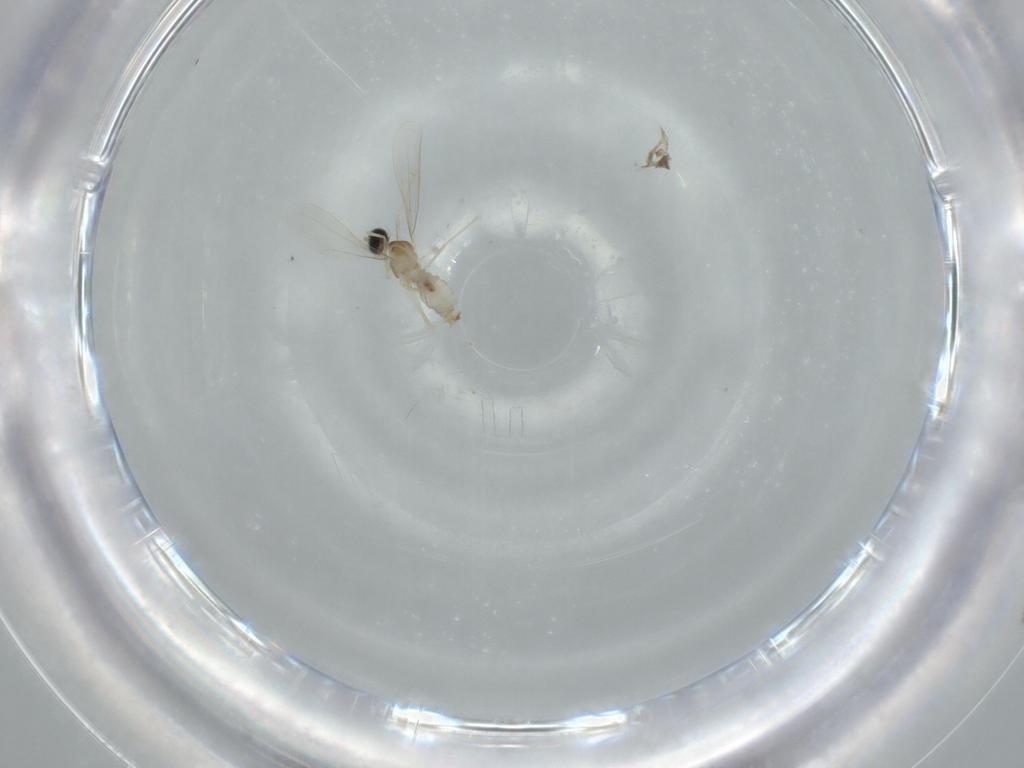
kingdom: Animalia
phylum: Arthropoda
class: Insecta
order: Diptera
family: Cecidomyiidae
